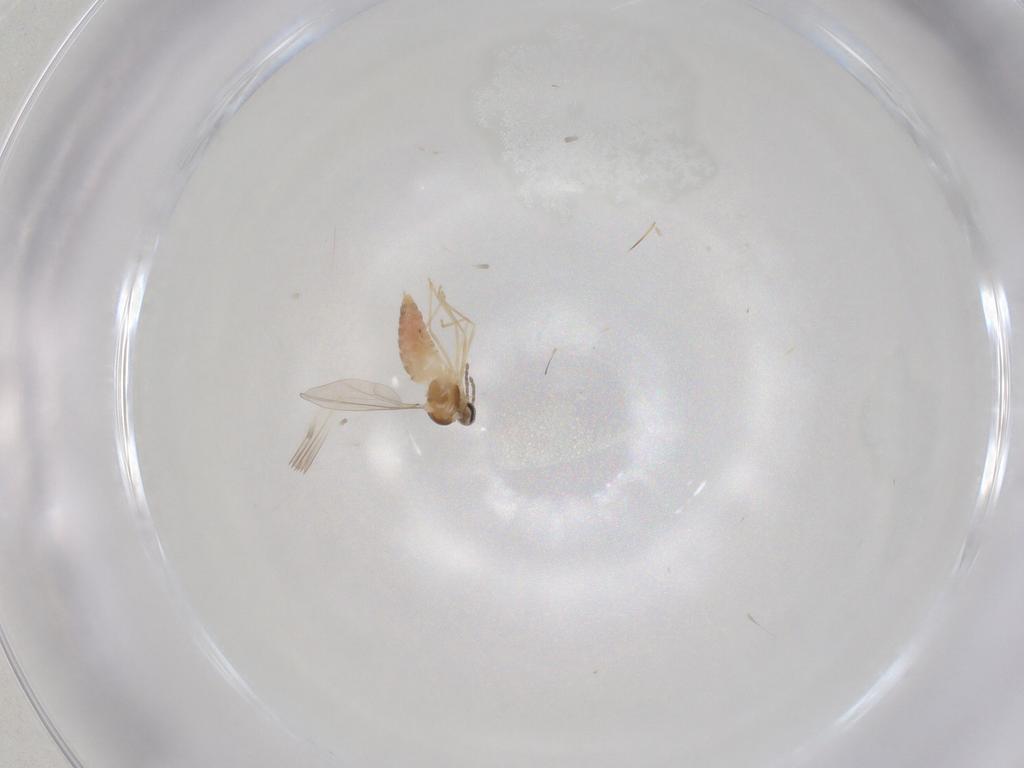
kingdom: Animalia
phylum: Arthropoda
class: Insecta
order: Diptera
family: Cecidomyiidae
